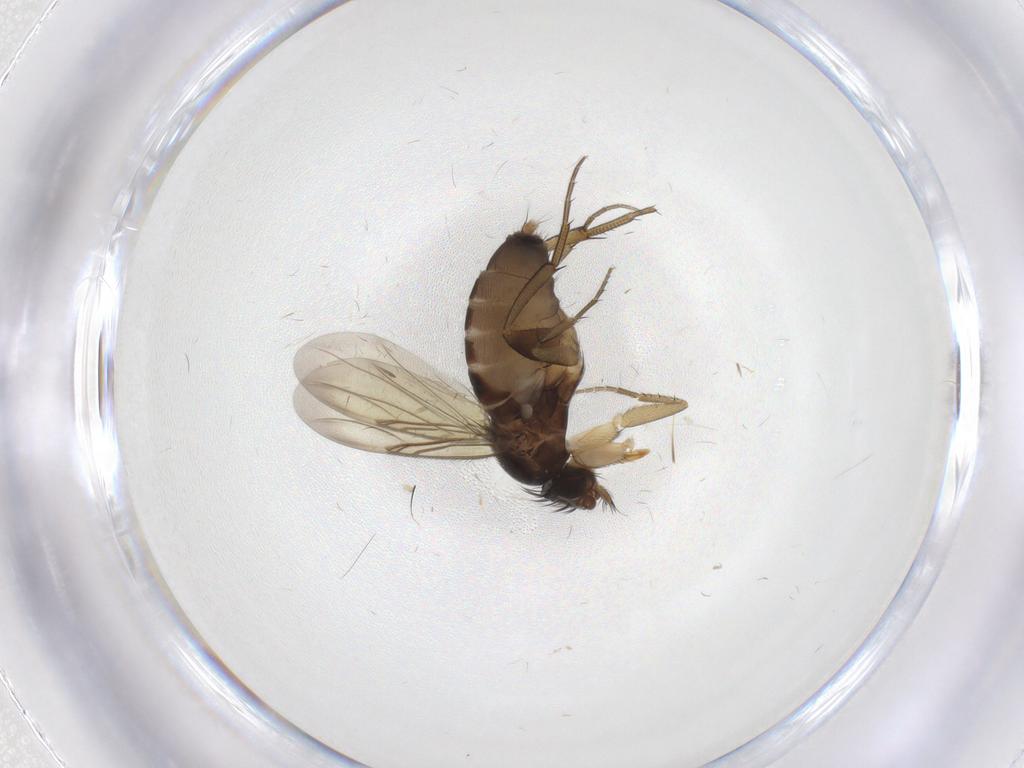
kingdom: Animalia
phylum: Arthropoda
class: Insecta
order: Diptera
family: Phoridae
